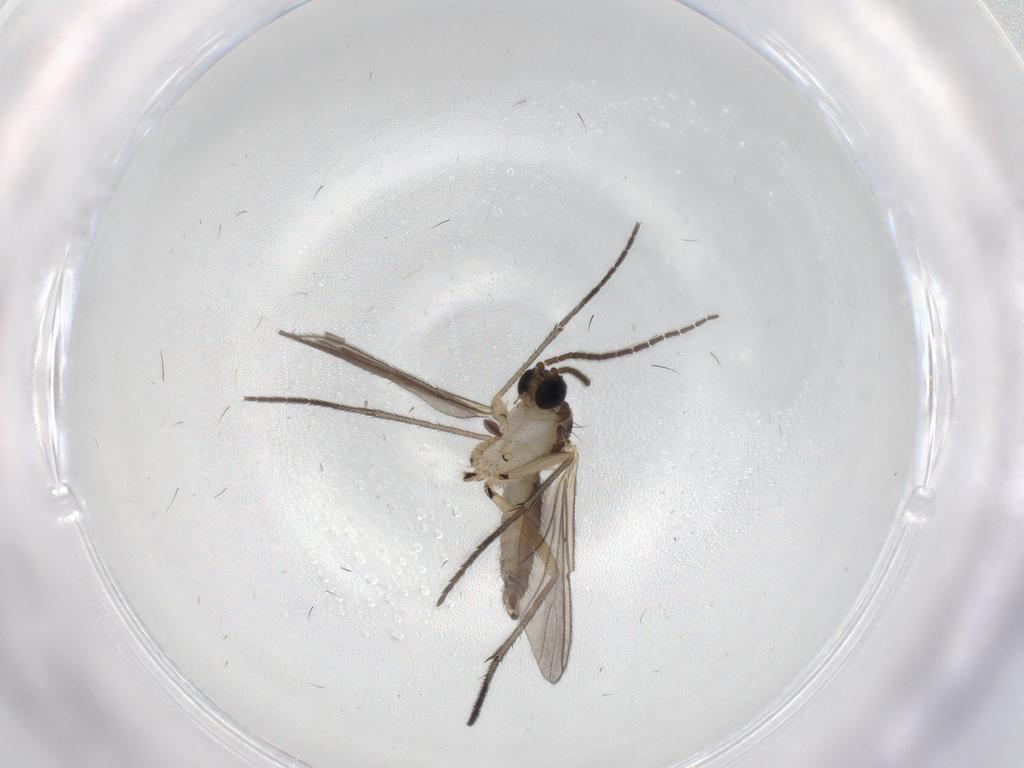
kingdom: Animalia
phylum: Arthropoda
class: Insecta
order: Diptera
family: Sciaridae
